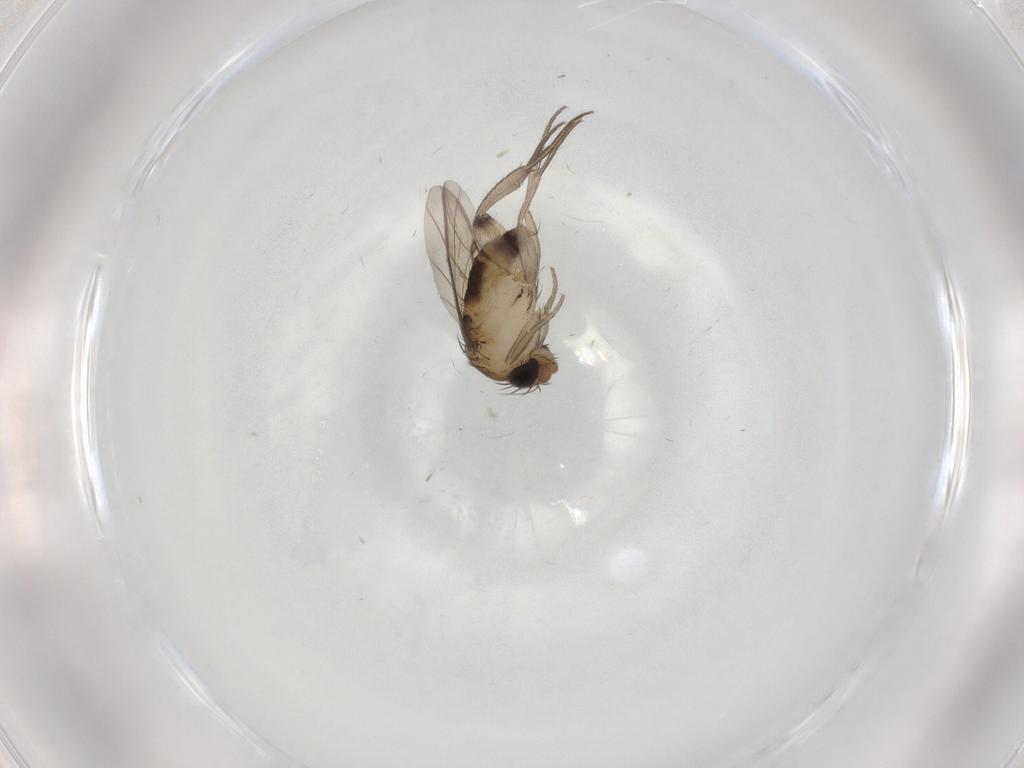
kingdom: Animalia
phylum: Arthropoda
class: Insecta
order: Diptera
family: Phoridae
